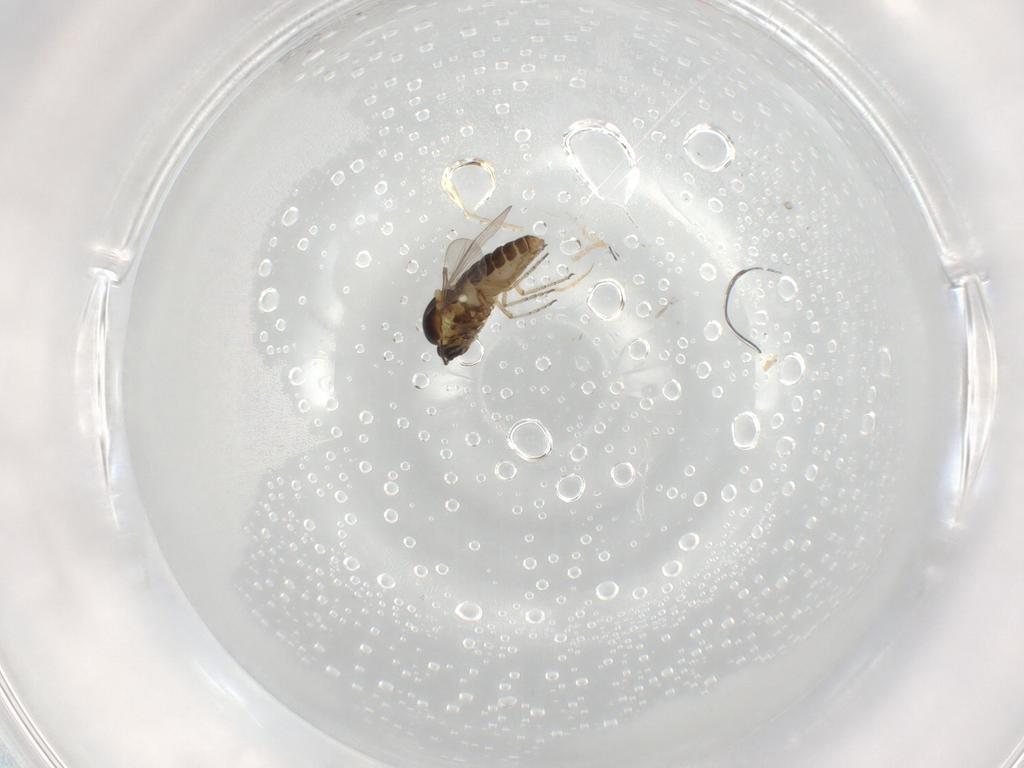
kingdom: Animalia
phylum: Arthropoda
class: Insecta
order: Diptera
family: Ceratopogonidae
